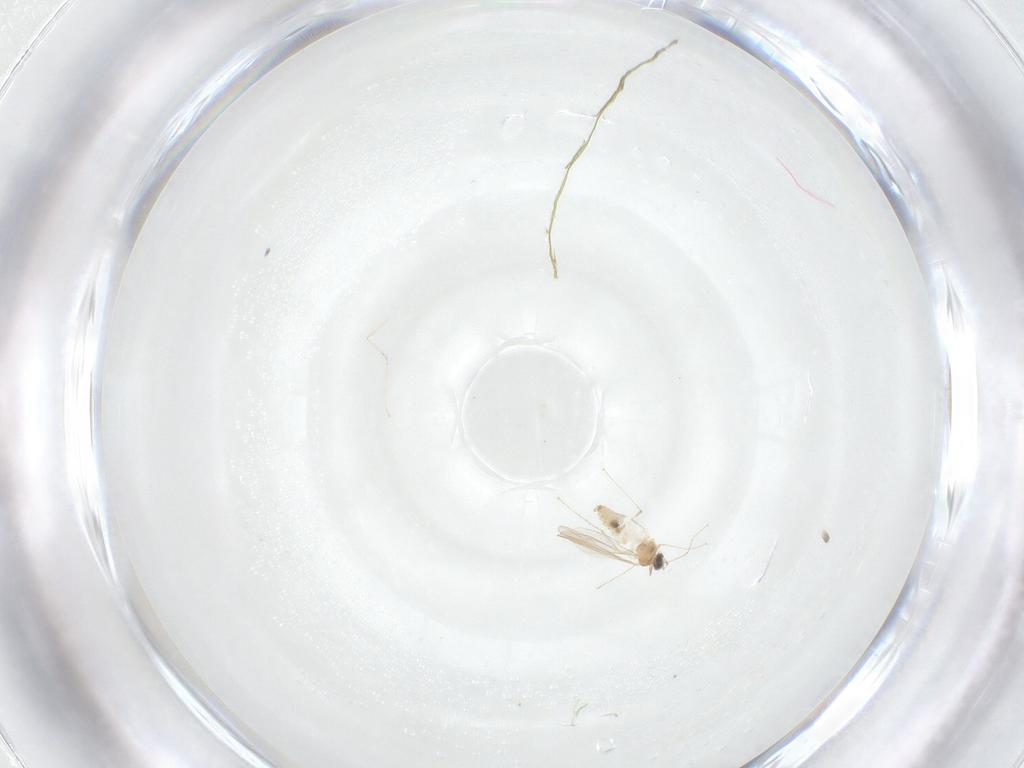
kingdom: Animalia
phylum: Arthropoda
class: Insecta
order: Diptera
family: Cecidomyiidae
